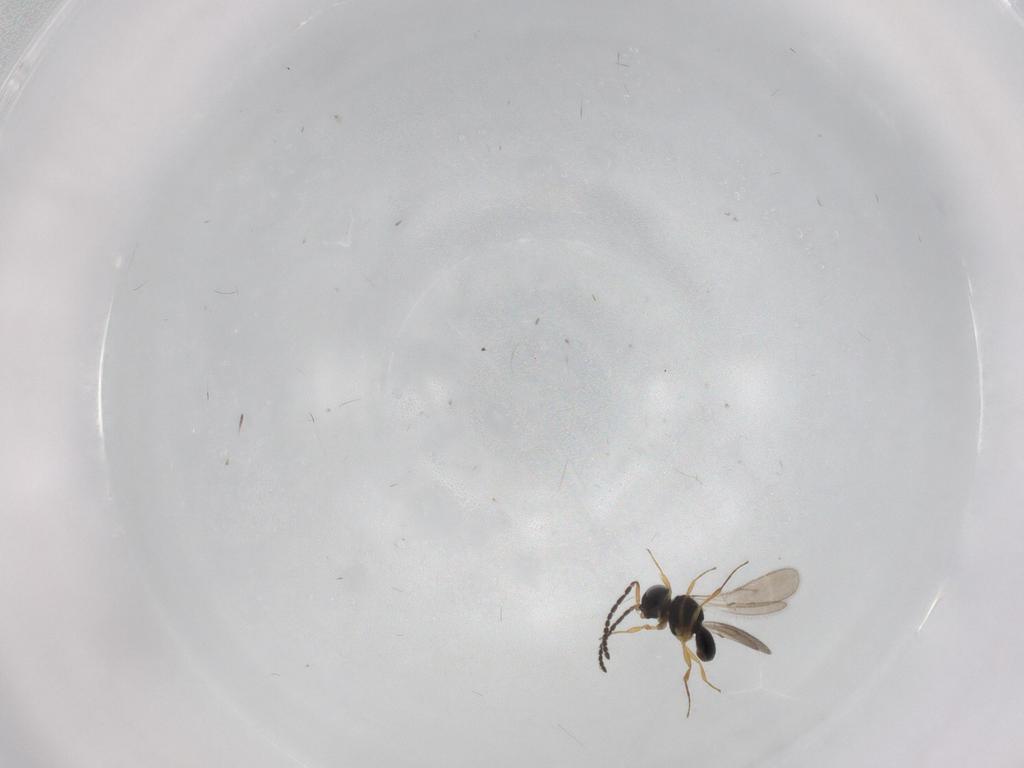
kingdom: Animalia
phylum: Arthropoda
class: Insecta
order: Hymenoptera
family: Scelionidae
